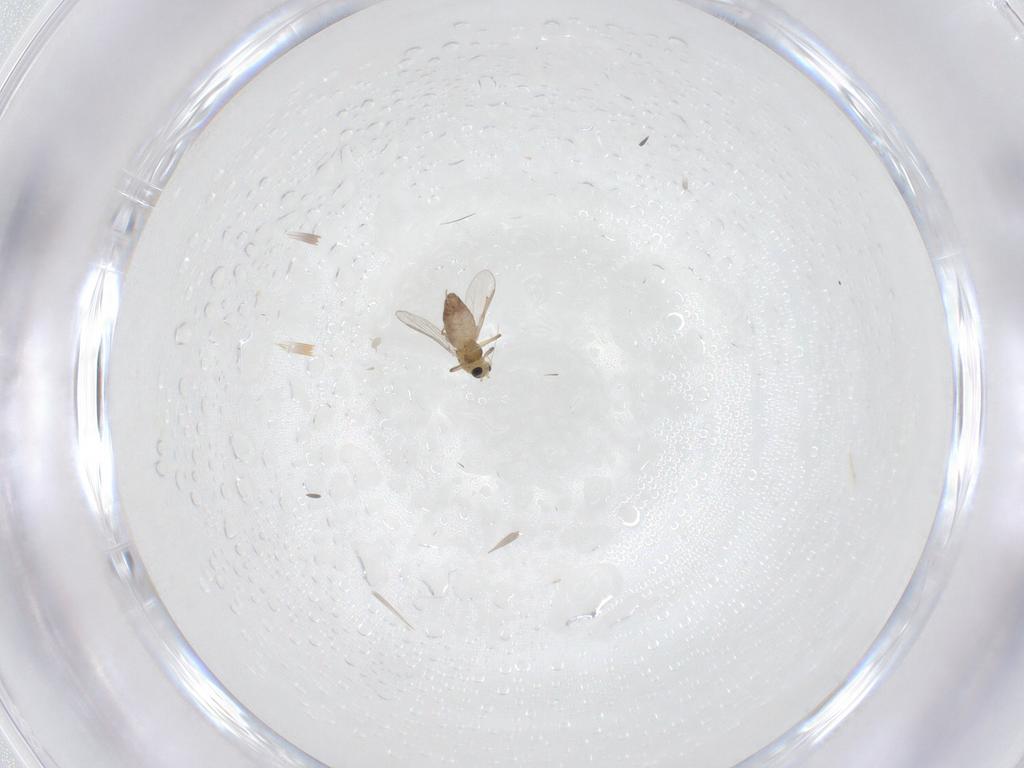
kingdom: Animalia
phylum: Arthropoda
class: Insecta
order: Diptera
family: Cecidomyiidae
